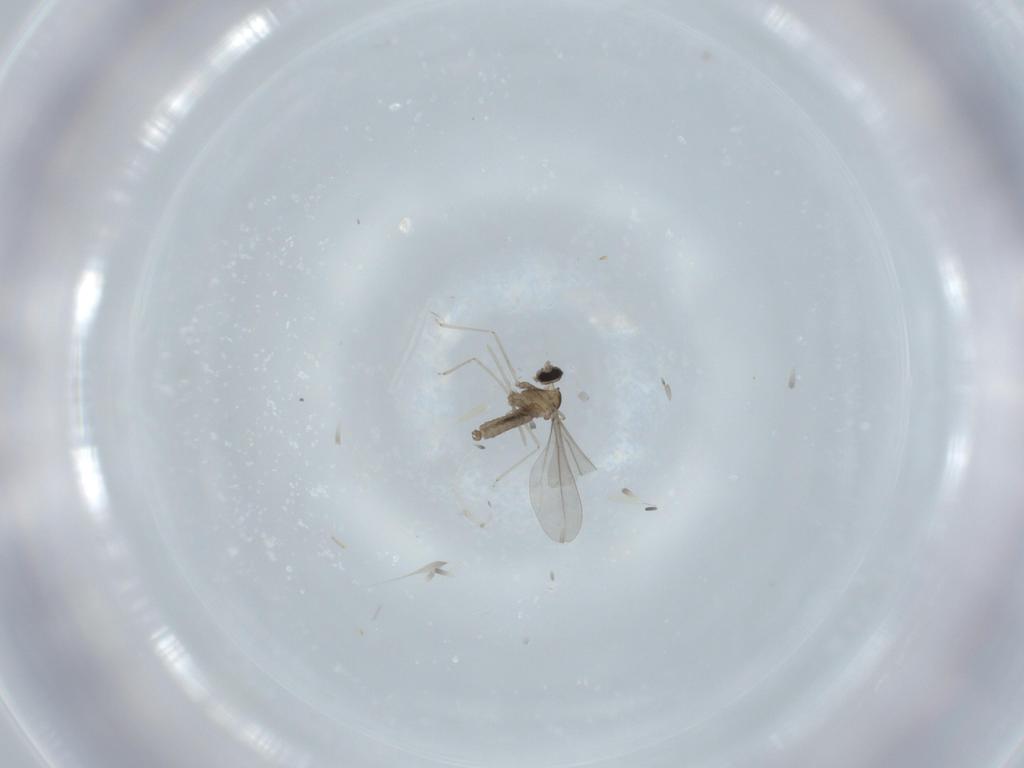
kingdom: Animalia
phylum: Arthropoda
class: Insecta
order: Diptera
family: Cecidomyiidae
